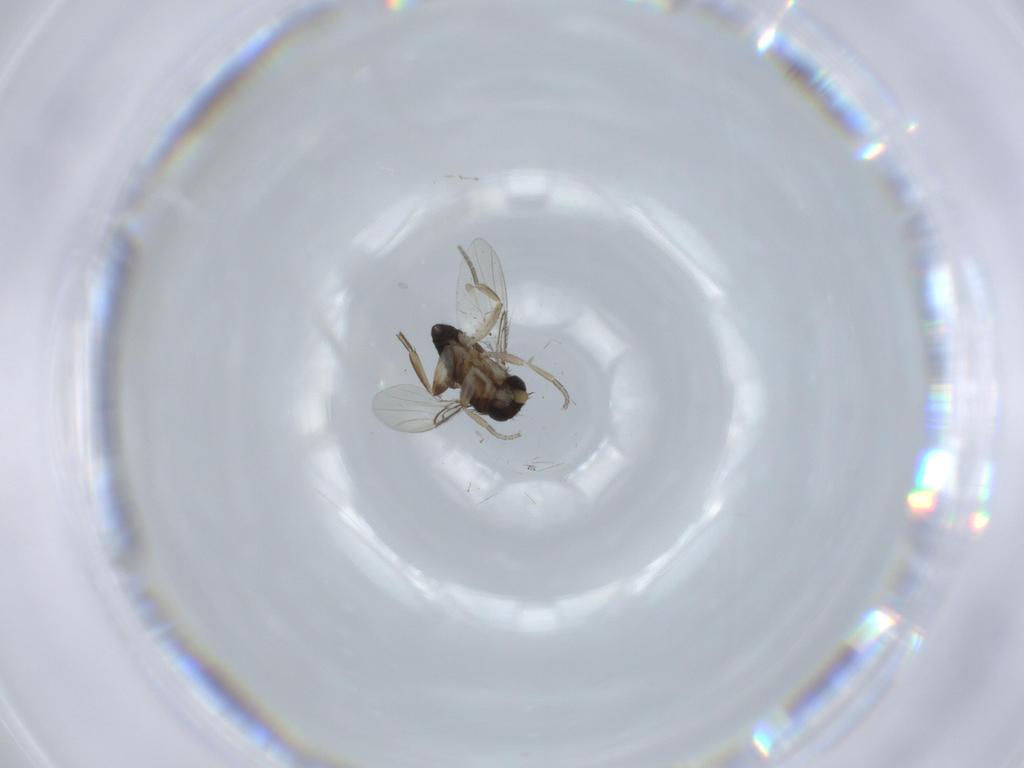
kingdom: Animalia
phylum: Arthropoda
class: Insecta
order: Diptera
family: Phoridae
